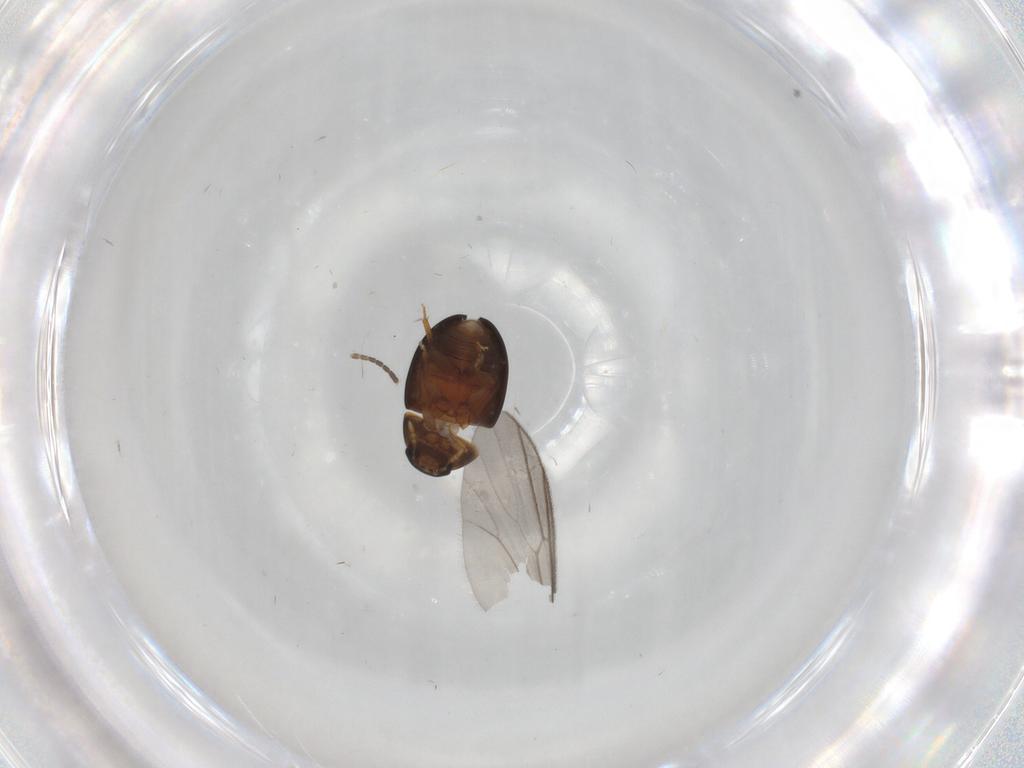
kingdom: Animalia
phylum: Arthropoda
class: Insecta
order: Coleoptera
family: Phalacridae
